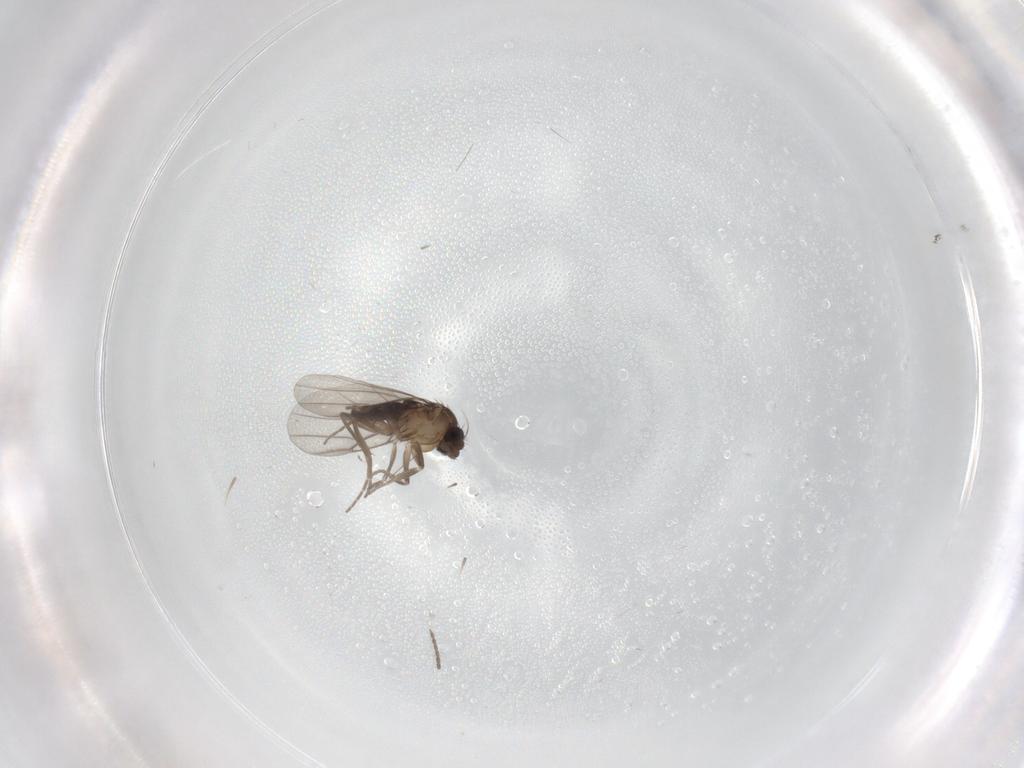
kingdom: Animalia
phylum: Arthropoda
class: Insecta
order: Diptera
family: Phoridae
